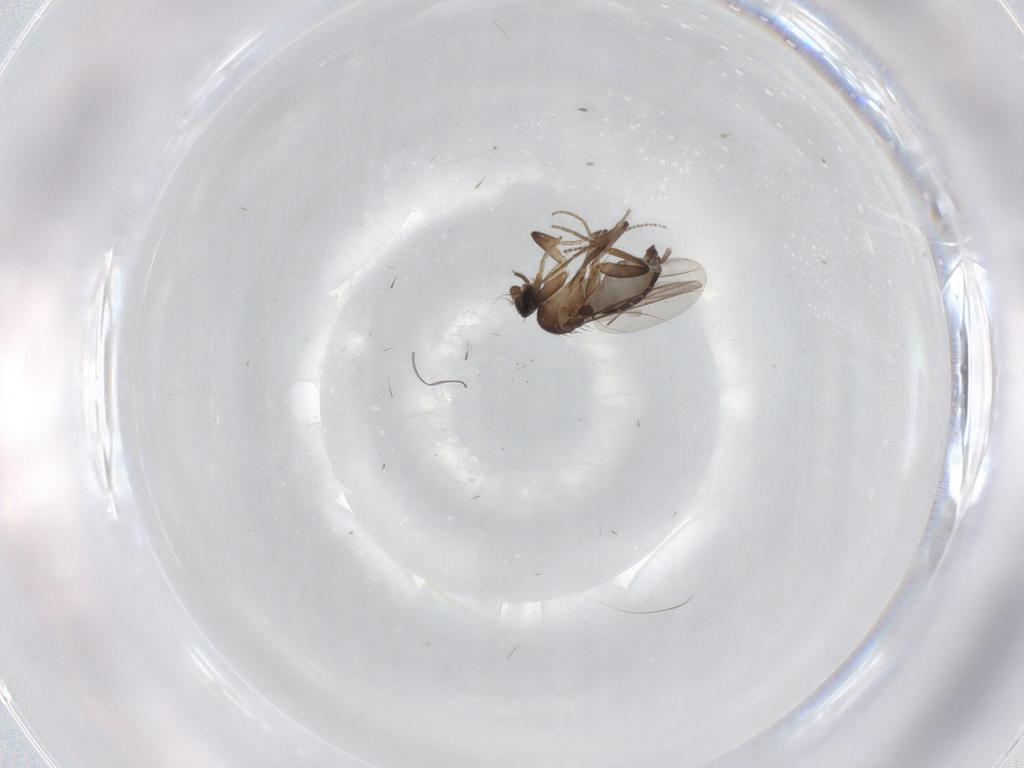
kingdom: Animalia
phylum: Arthropoda
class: Insecta
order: Diptera
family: Cecidomyiidae
